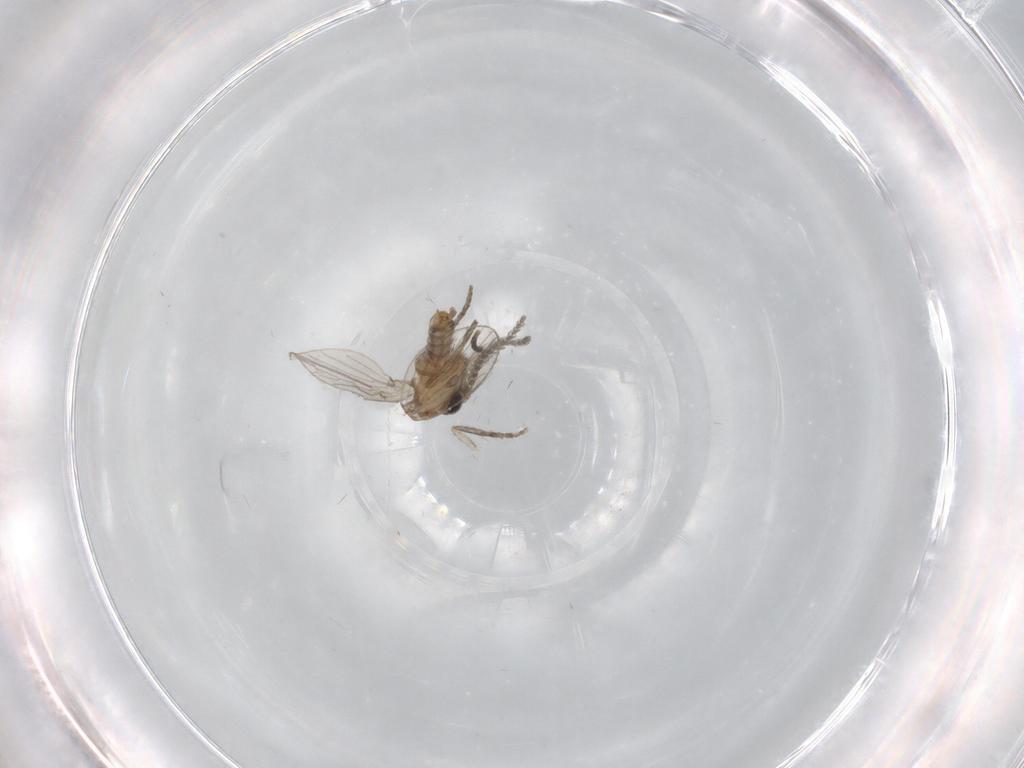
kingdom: Animalia
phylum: Arthropoda
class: Insecta
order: Diptera
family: Psychodidae
